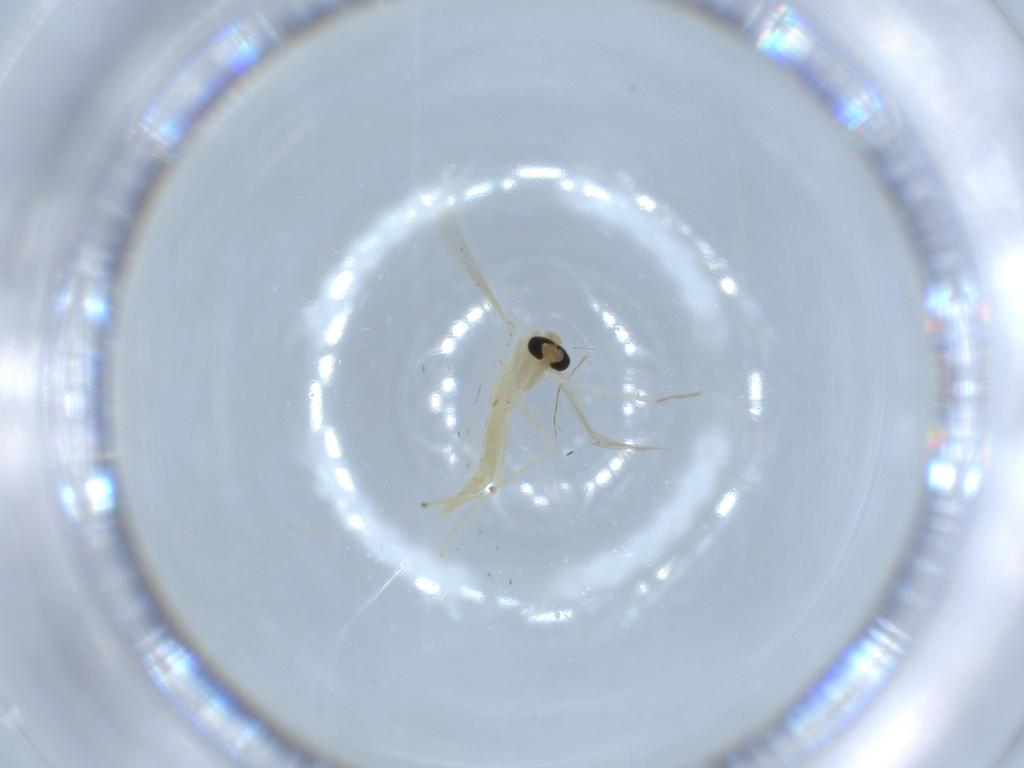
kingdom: Animalia
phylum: Arthropoda
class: Insecta
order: Diptera
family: Chironomidae
